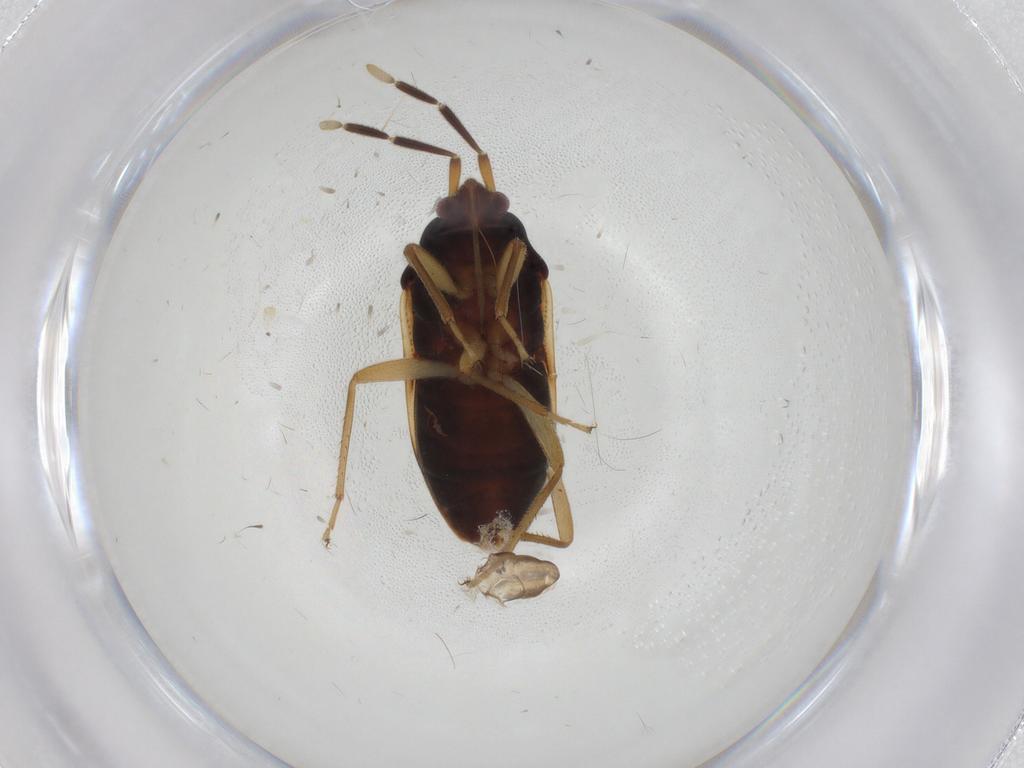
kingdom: Animalia
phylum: Arthropoda
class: Insecta
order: Hemiptera
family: Rhyparochromidae
